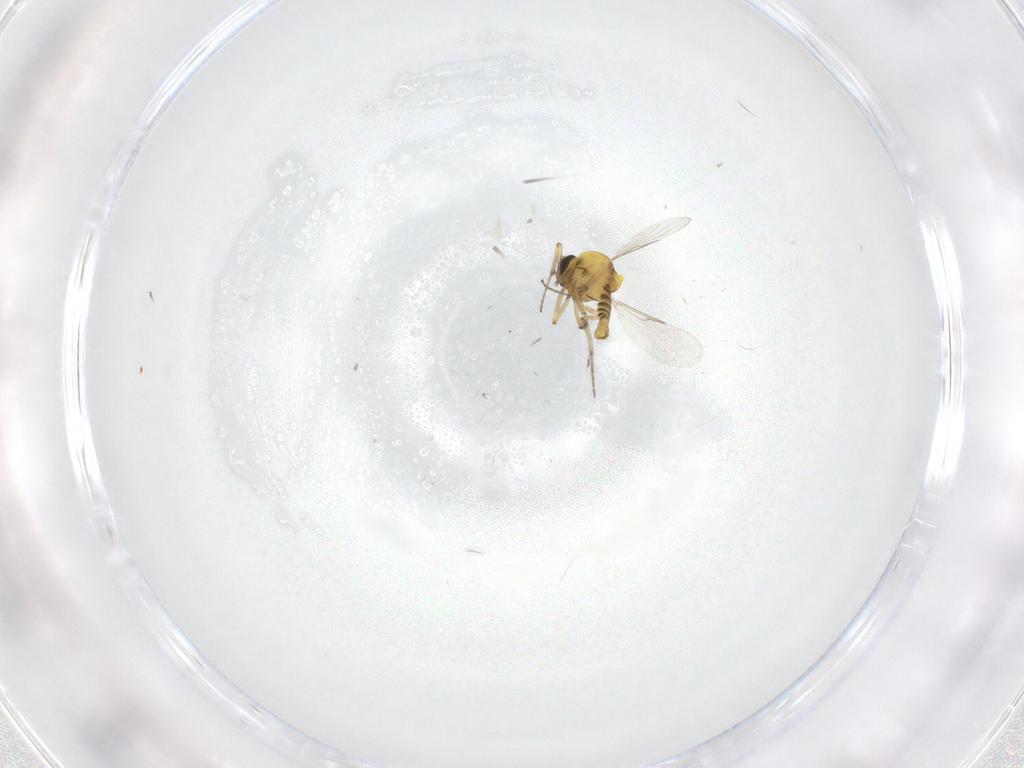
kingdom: Animalia
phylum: Arthropoda
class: Insecta
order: Diptera
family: Ceratopogonidae
